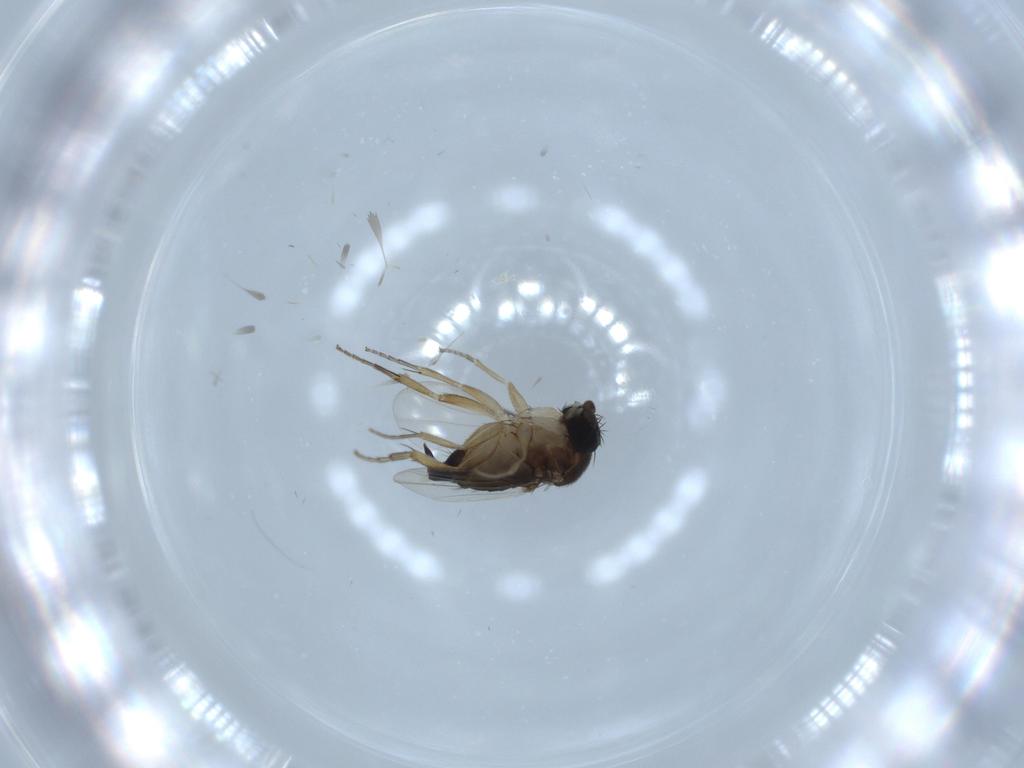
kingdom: Animalia
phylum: Arthropoda
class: Insecta
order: Diptera
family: Phoridae
